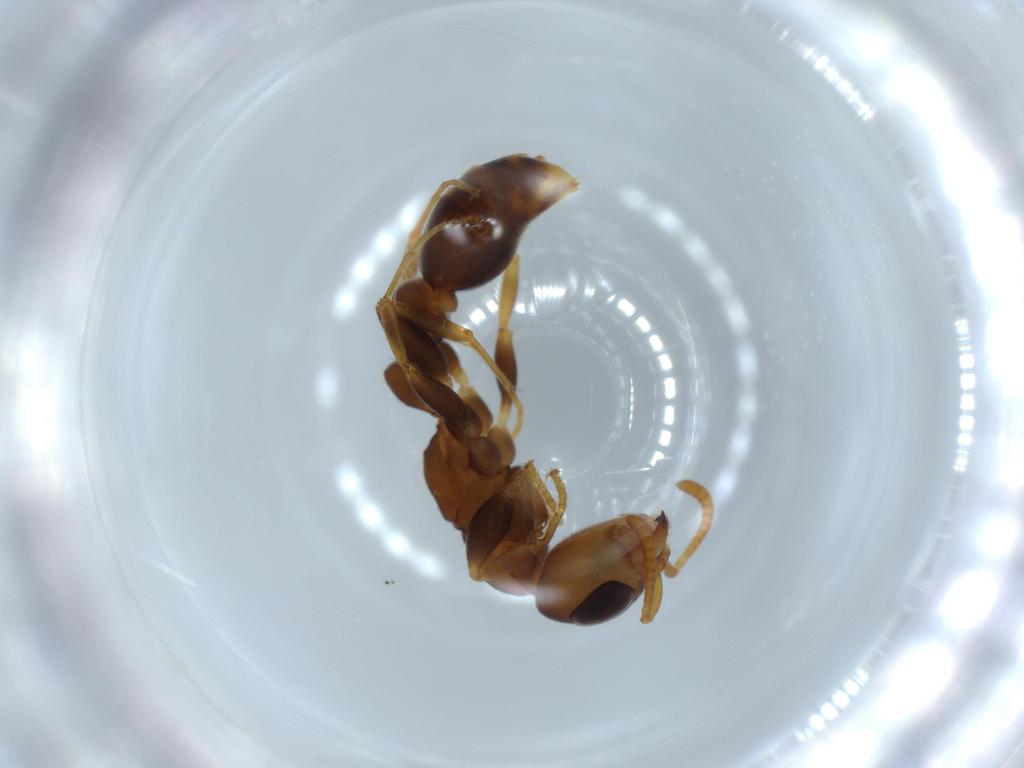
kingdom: Animalia
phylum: Arthropoda
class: Insecta
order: Hymenoptera
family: Formicidae
